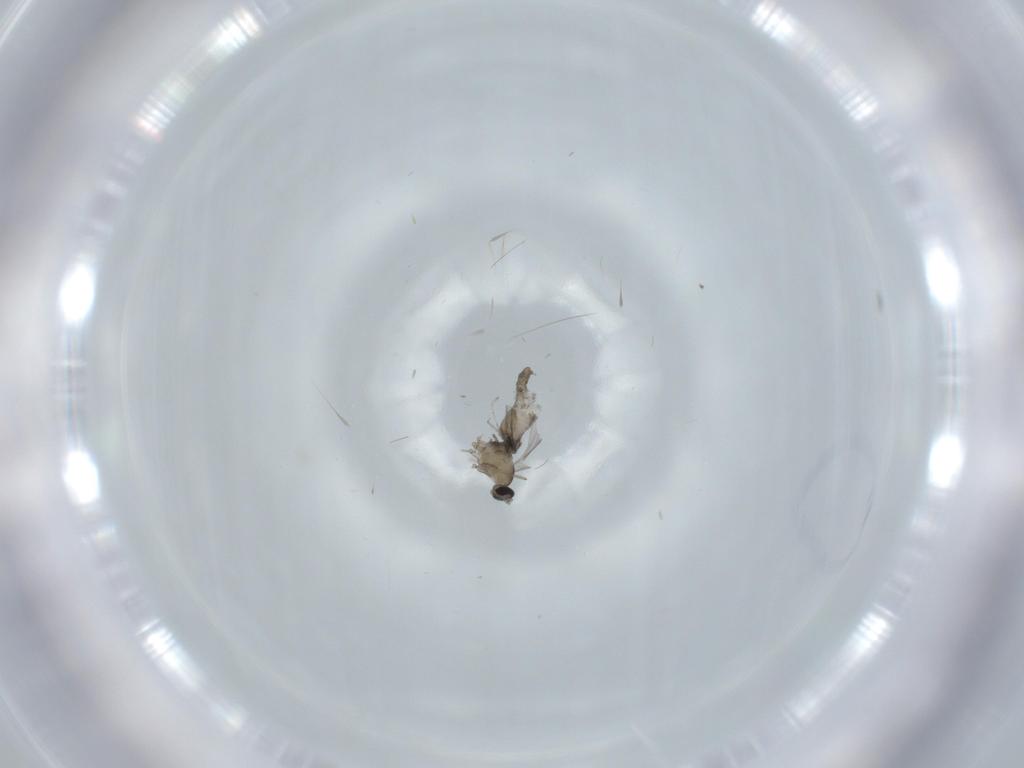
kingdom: Animalia
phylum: Arthropoda
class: Insecta
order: Diptera
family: Cecidomyiidae
